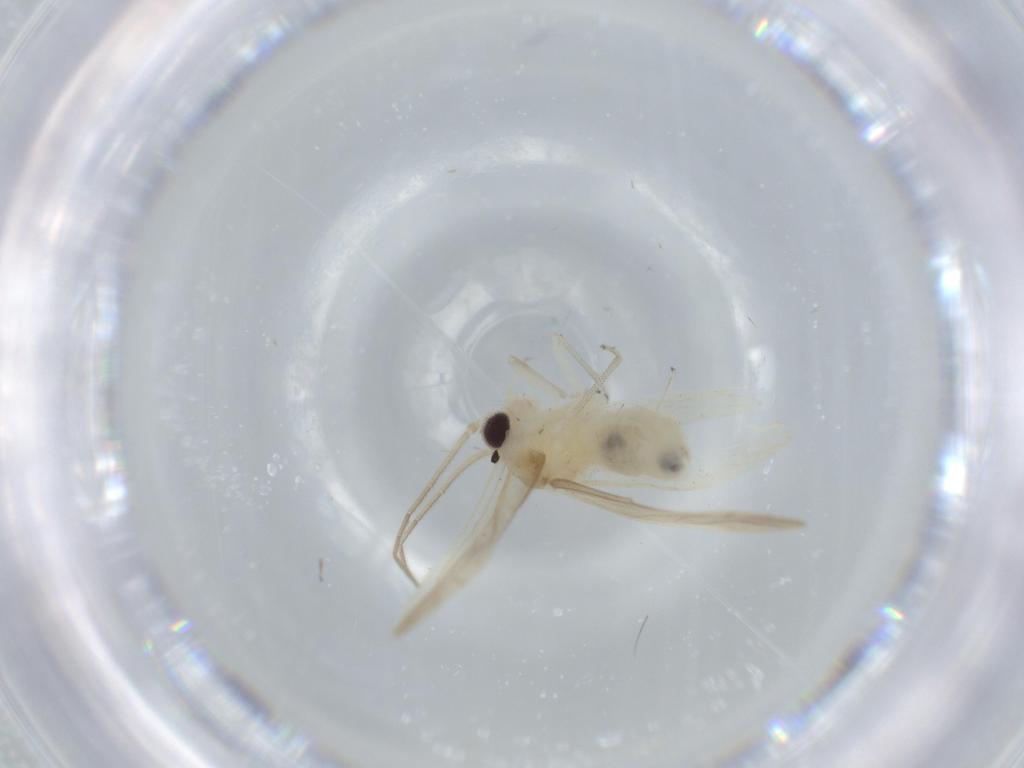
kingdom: Animalia
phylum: Arthropoda
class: Insecta
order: Psocodea
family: Caeciliusidae
